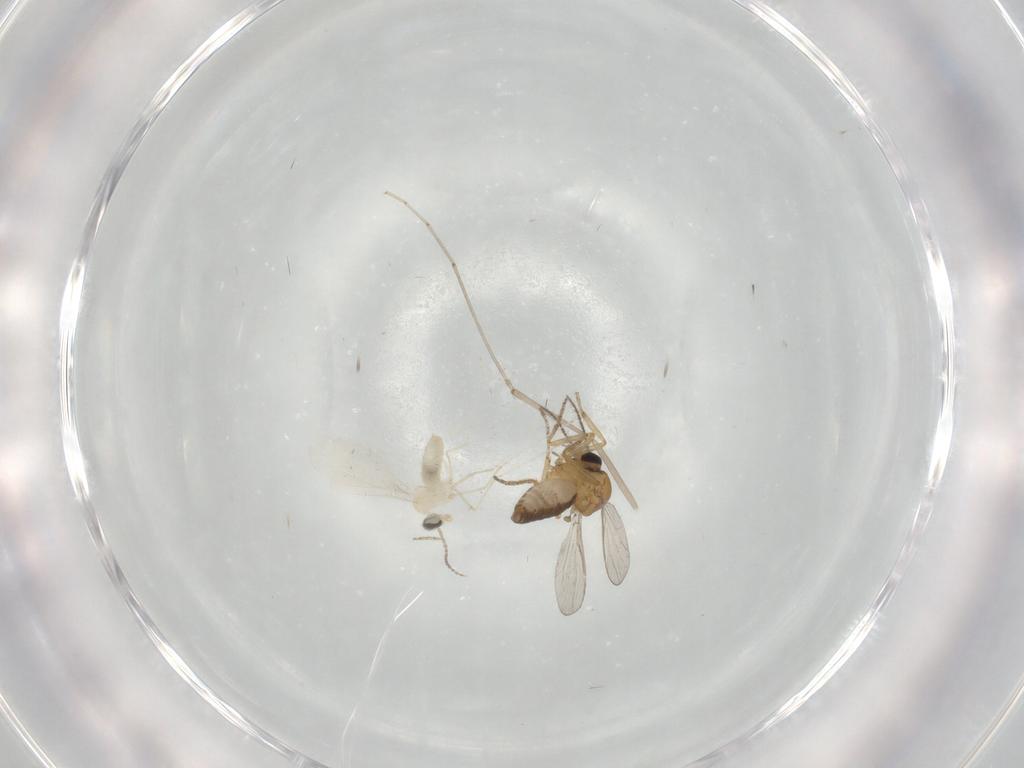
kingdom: Animalia
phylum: Arthropoda
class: Insecta
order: Diptera
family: Ceratopogonidae
